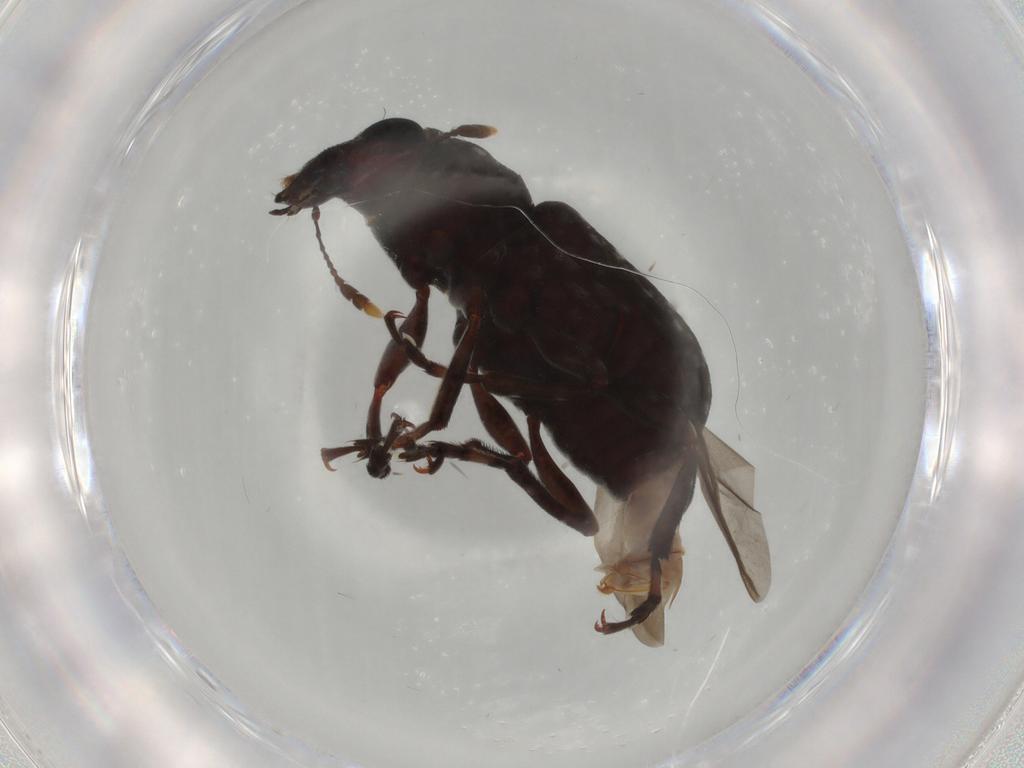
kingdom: Animalia
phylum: Arthropoda
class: Insecta
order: Coleoptera
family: Anthribidae
